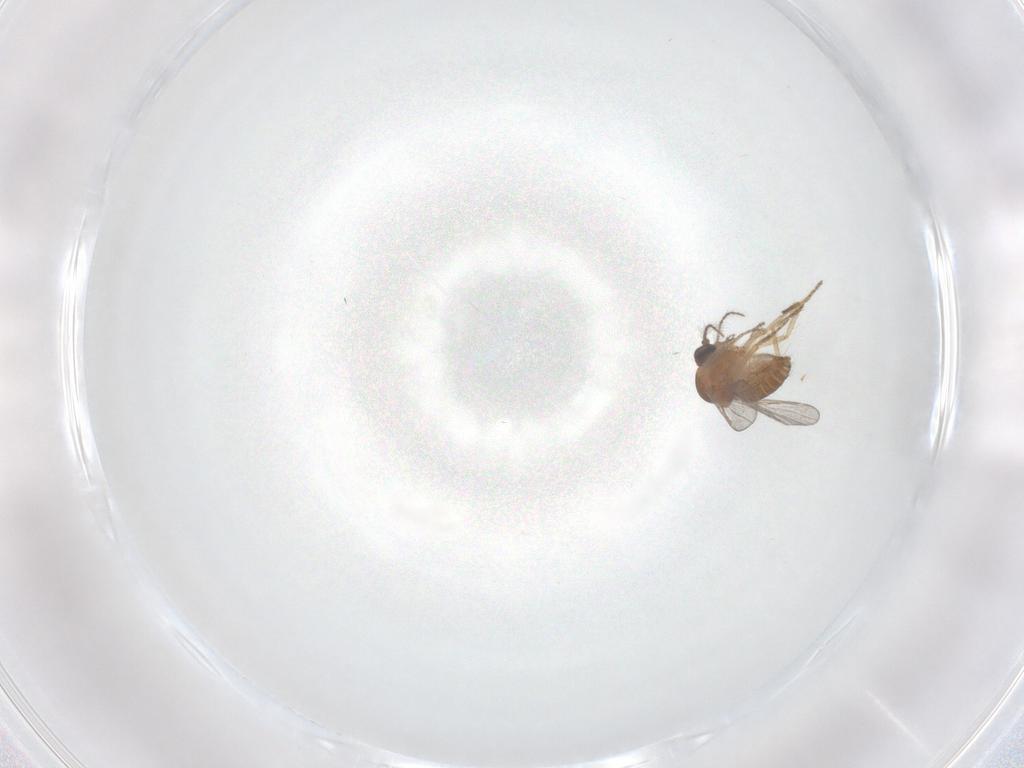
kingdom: Animalia
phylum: Arthropoda
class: Insecta
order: Diptera
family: Ceratopogonidae
